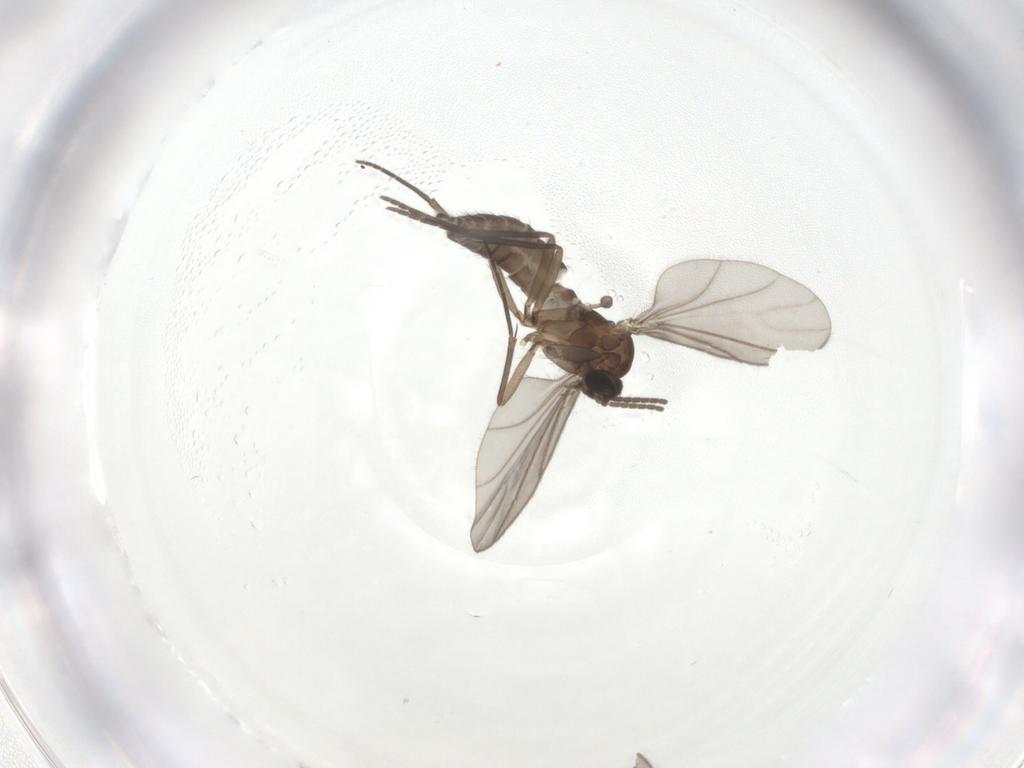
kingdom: Animalia
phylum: Arthropoda
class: Insecta
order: Diptera
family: Sciaridae
